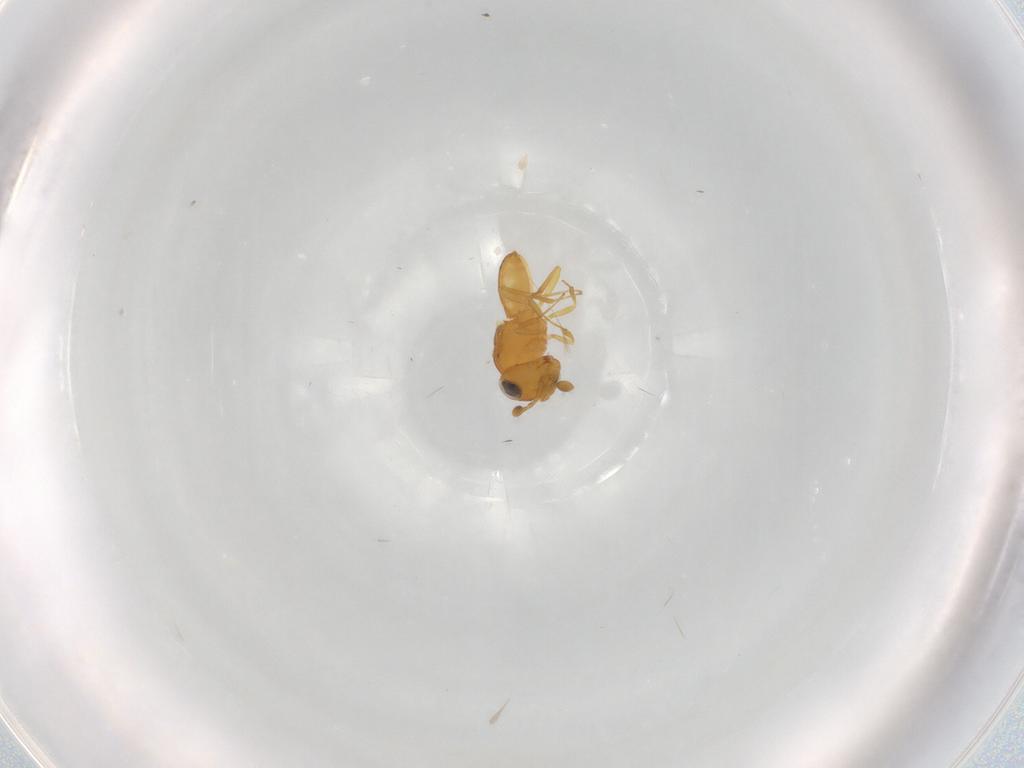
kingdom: Animalia
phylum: Arthropoda
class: Insecta
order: Hymenoptera
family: Scelionidae
